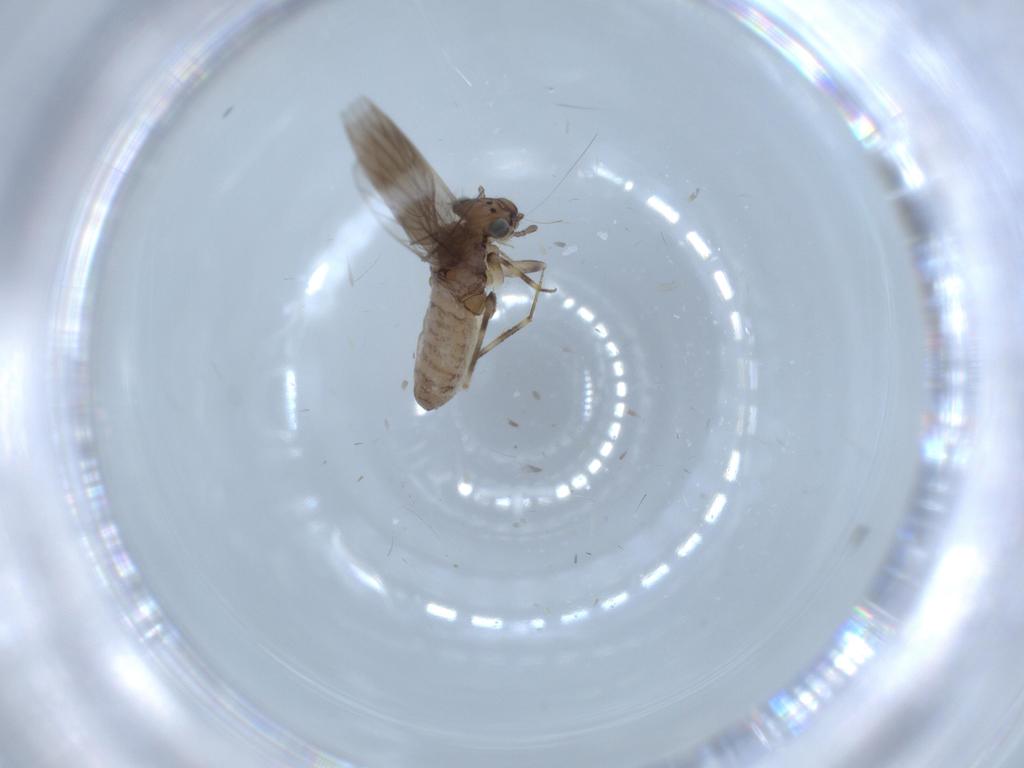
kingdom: Animalia
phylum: Arthropoda
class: Insecta
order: Psocodea
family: Lepidopsocidae
